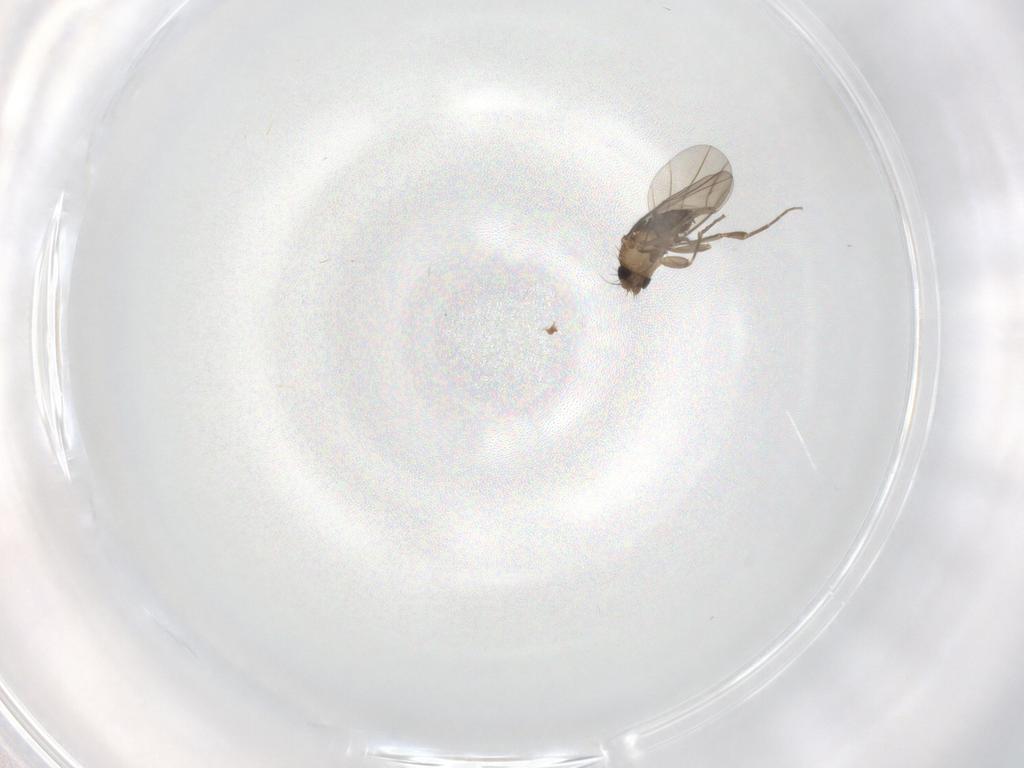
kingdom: Animalia
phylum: Arthropoda
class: Insecta
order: Diptera
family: Phoridae
